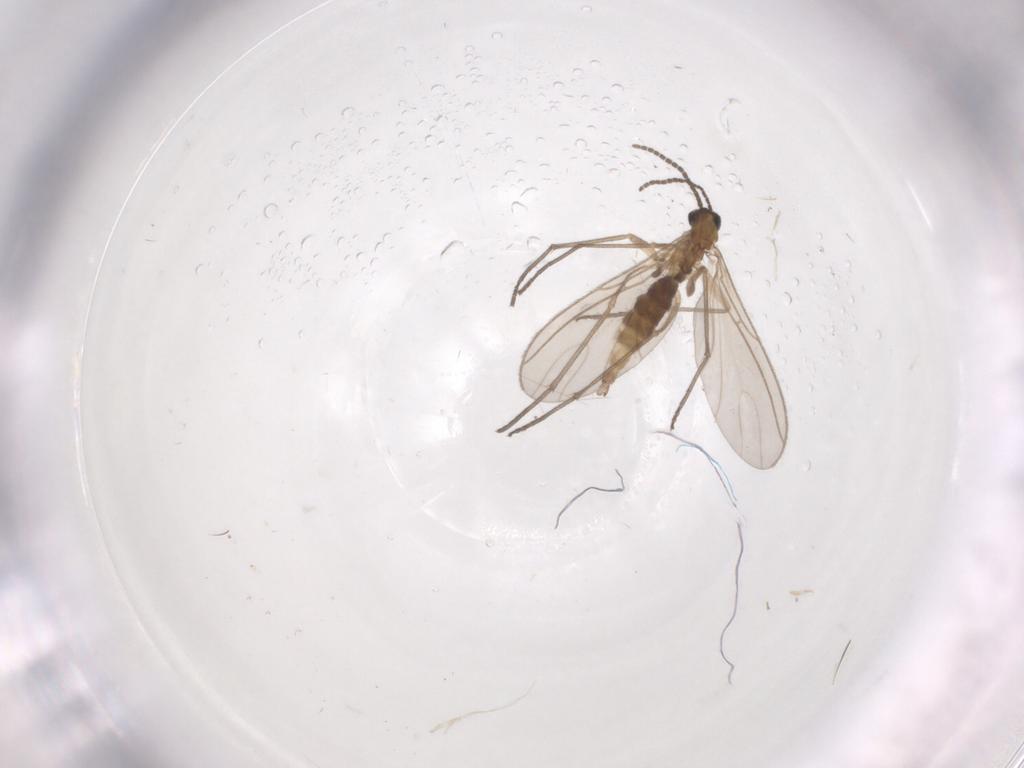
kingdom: Animalia
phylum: Arthropoda
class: Insecta
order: Diptera
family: Sciaridae
